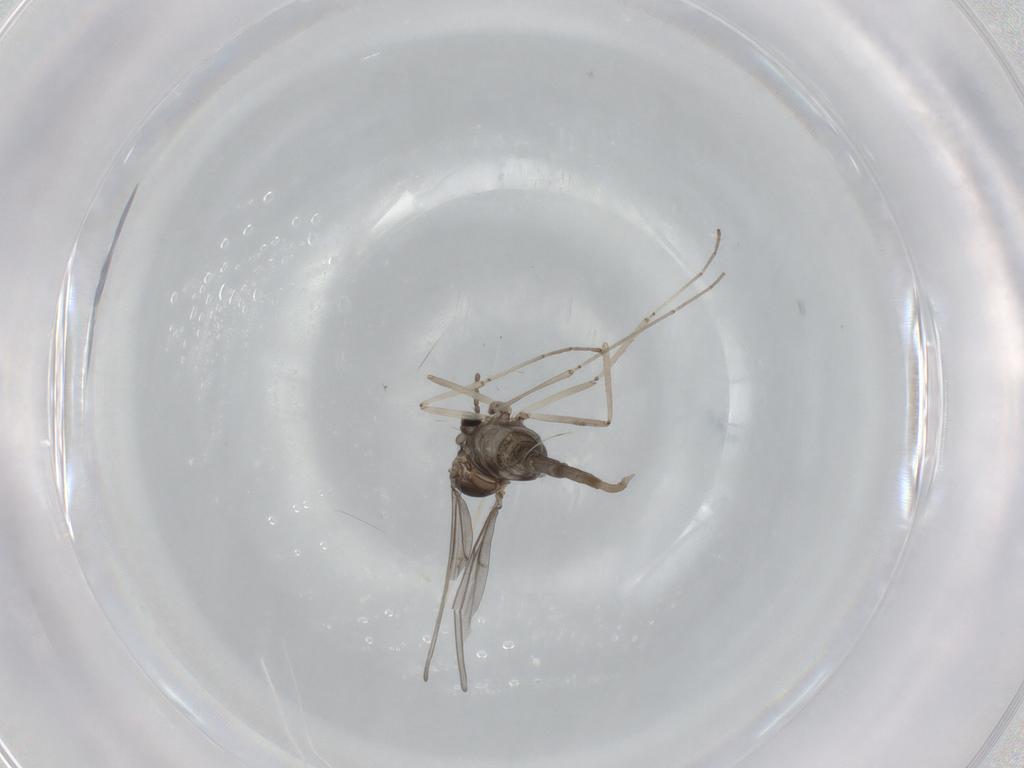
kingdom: Animalia
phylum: Arthropoda
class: Insecta
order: Diptera
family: Cecidomyiidae
